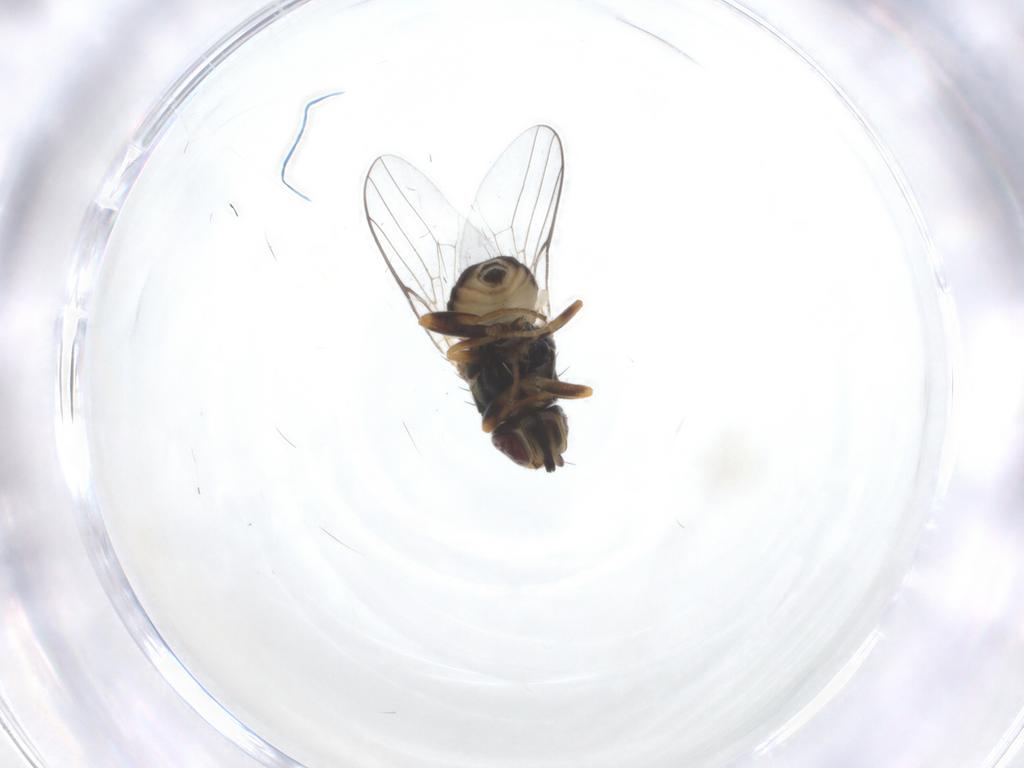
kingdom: Animalia
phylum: Arthropoda
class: Insecta
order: Diptera
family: Chloropidae
